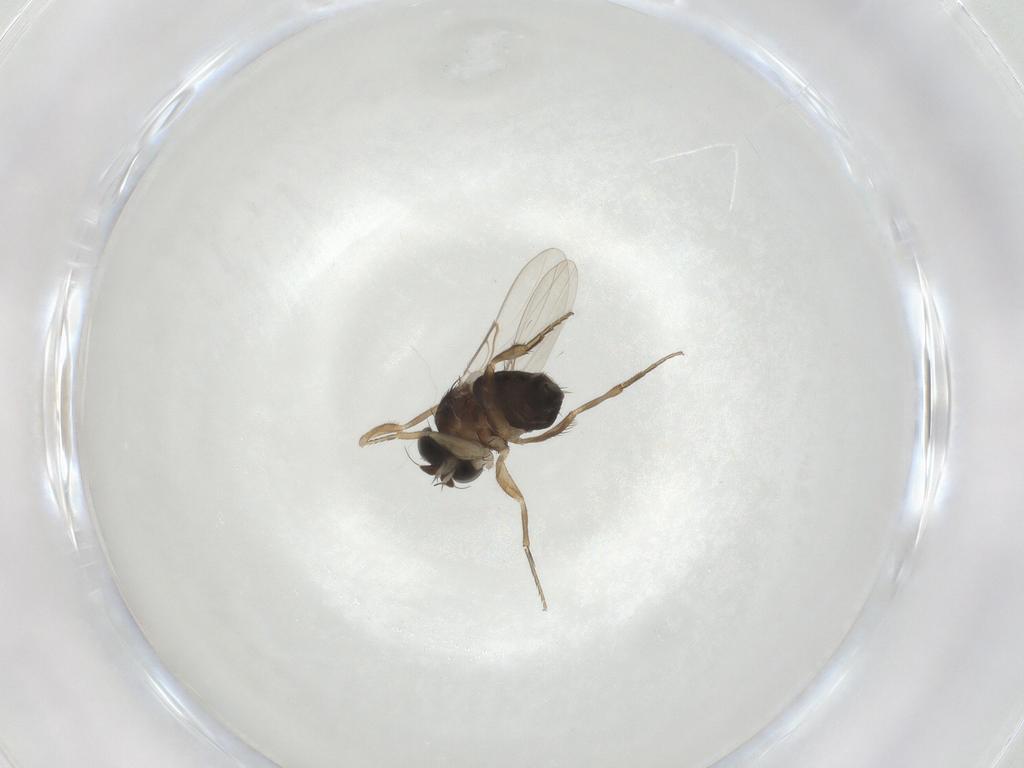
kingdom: Animalia
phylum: Arthropoda
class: Insecta
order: Diptera
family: Phoridae
